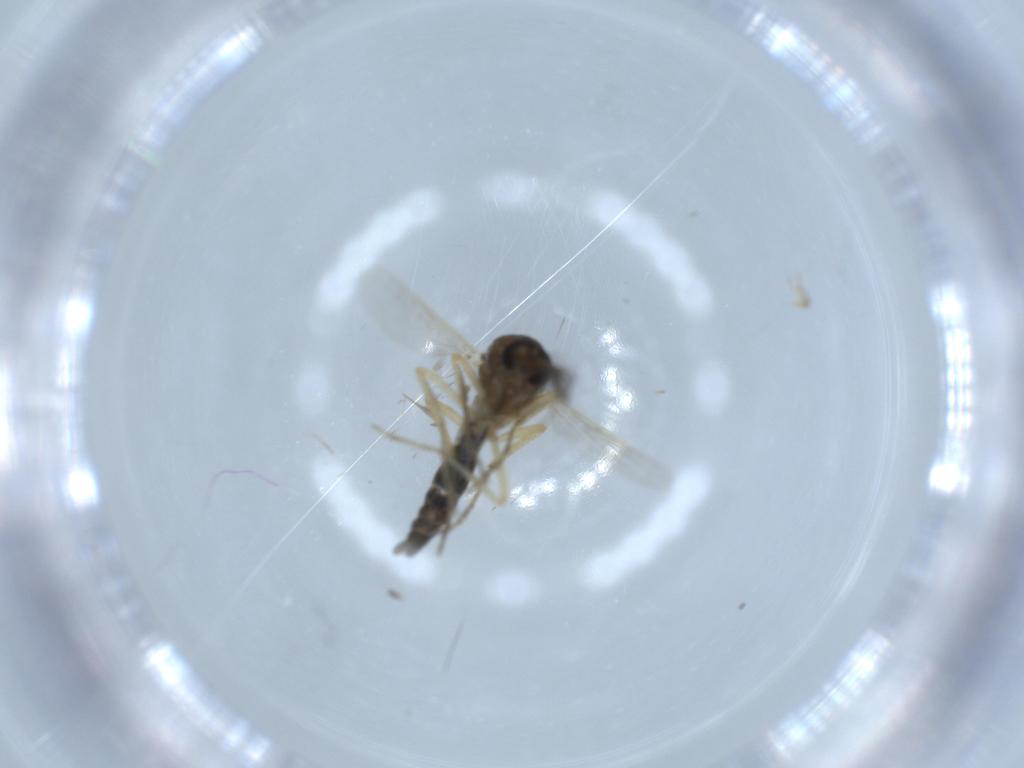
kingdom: Animalia
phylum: Arthropoda
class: Insecta
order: Diptera
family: Ceratopogonidae
